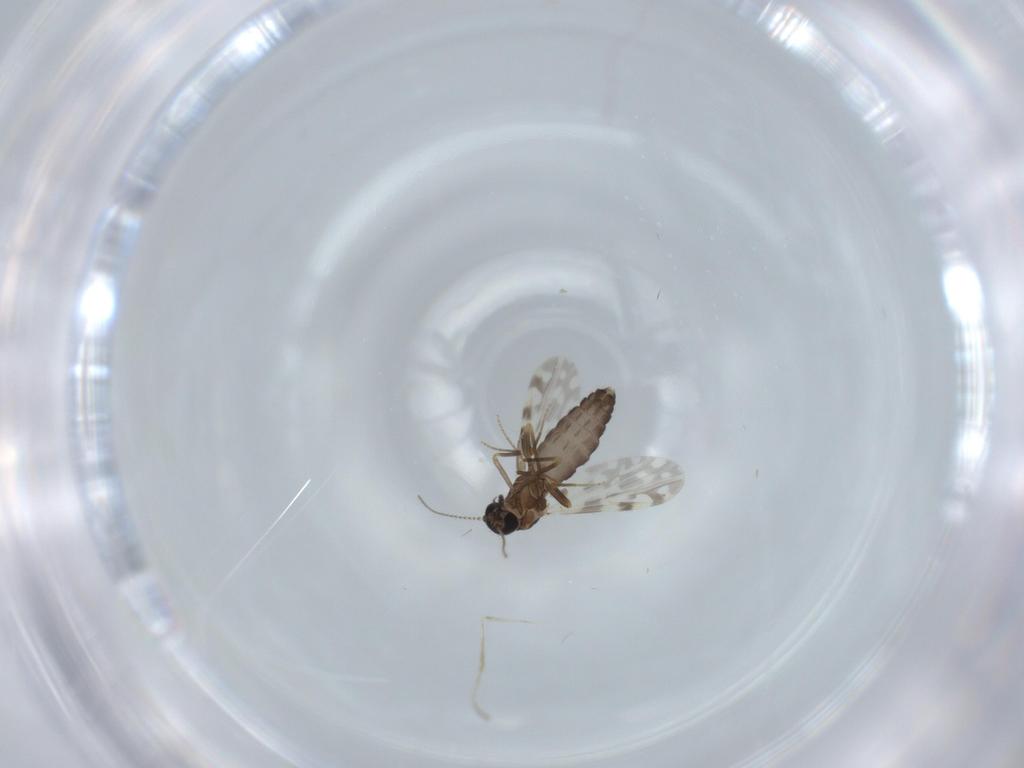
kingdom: Animalia
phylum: Arthropoda
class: Insecta
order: Diptera
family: Ceratopogonidae
